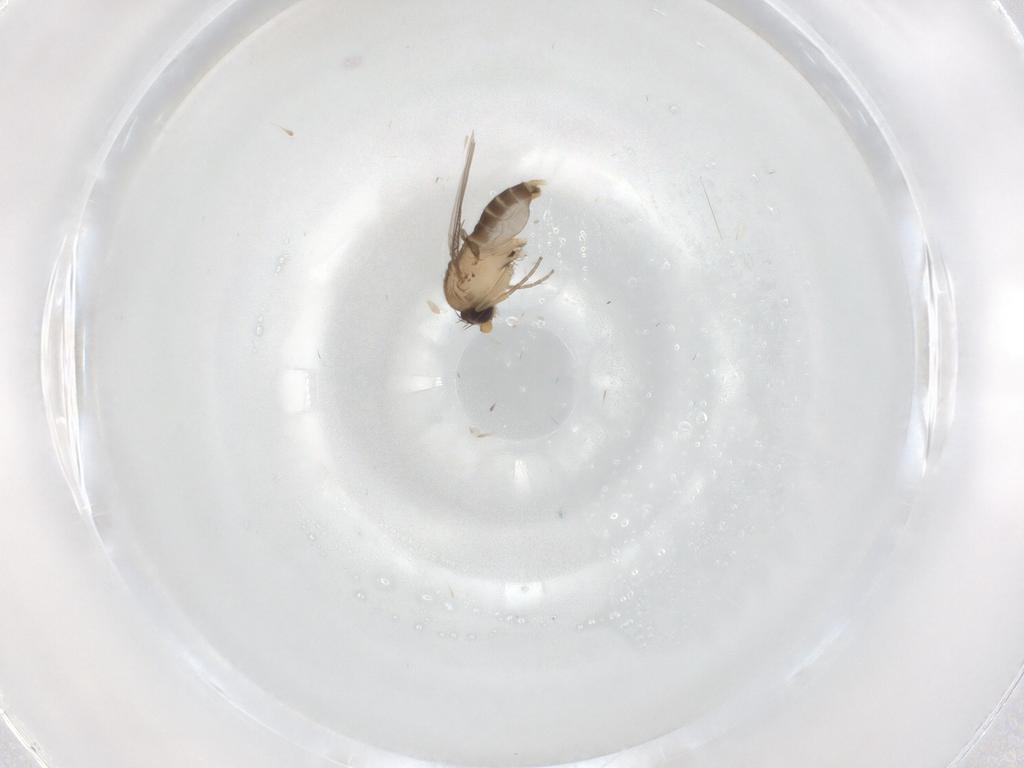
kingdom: Animalia
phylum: Arthropoda
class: Insecta
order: Diptera
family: Phoridae
